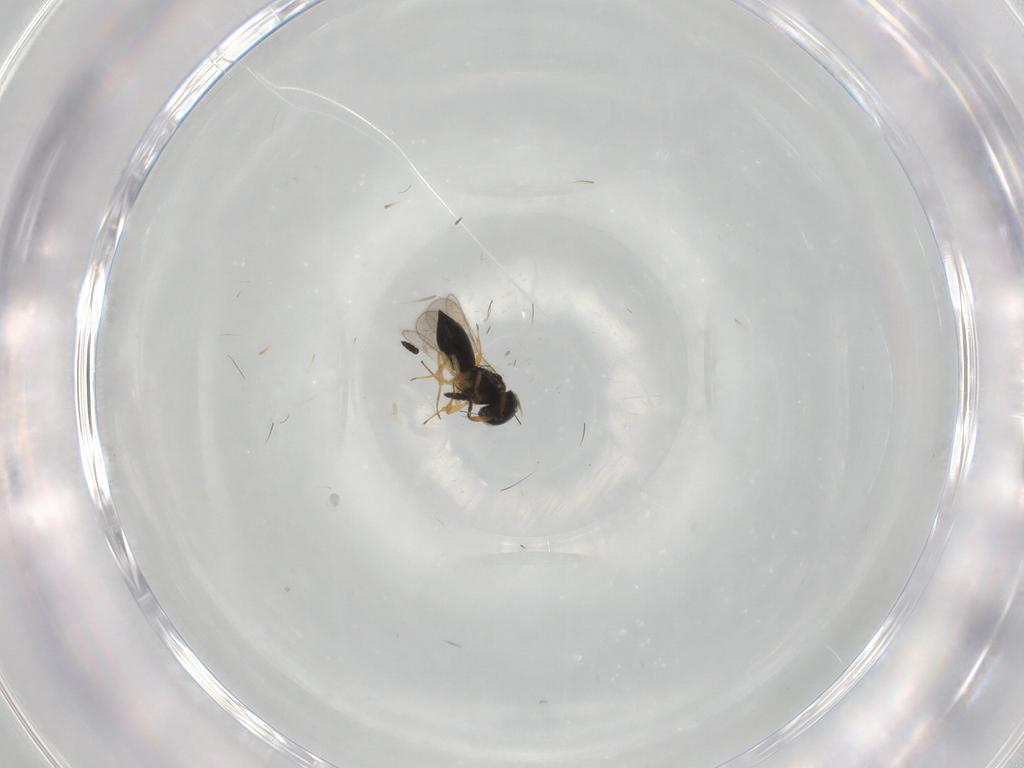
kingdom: Animalia
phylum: Arthropoda
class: Insecta
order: Hymenoptera
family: Scelionidae
